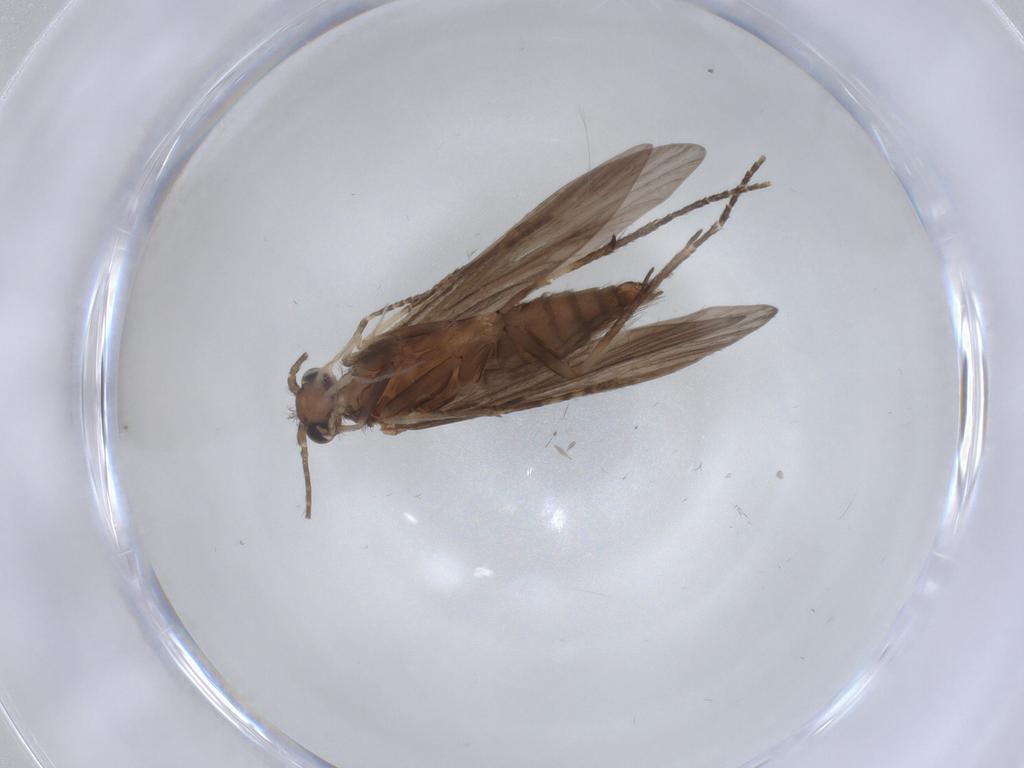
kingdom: Animalia
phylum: Arthropoda
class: Insecta
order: Trichoptera
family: Xiphocentronidae
